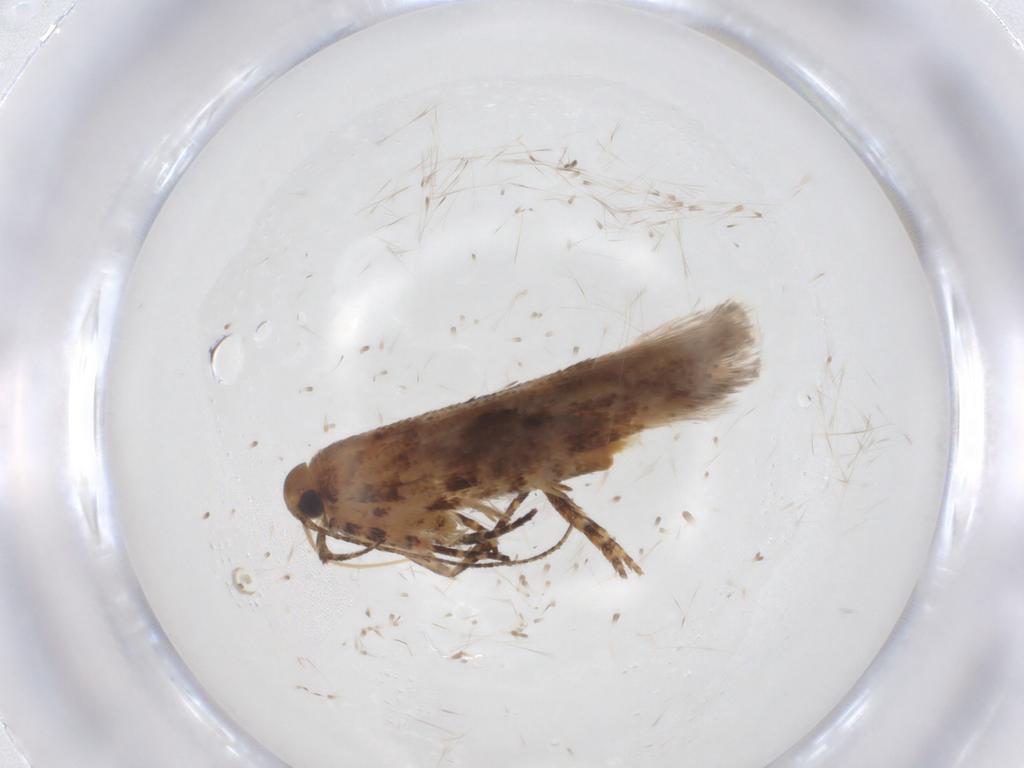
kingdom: Animalia
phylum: Arthropoda
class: Insecta
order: Lepidoptera
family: Gelechiidae
